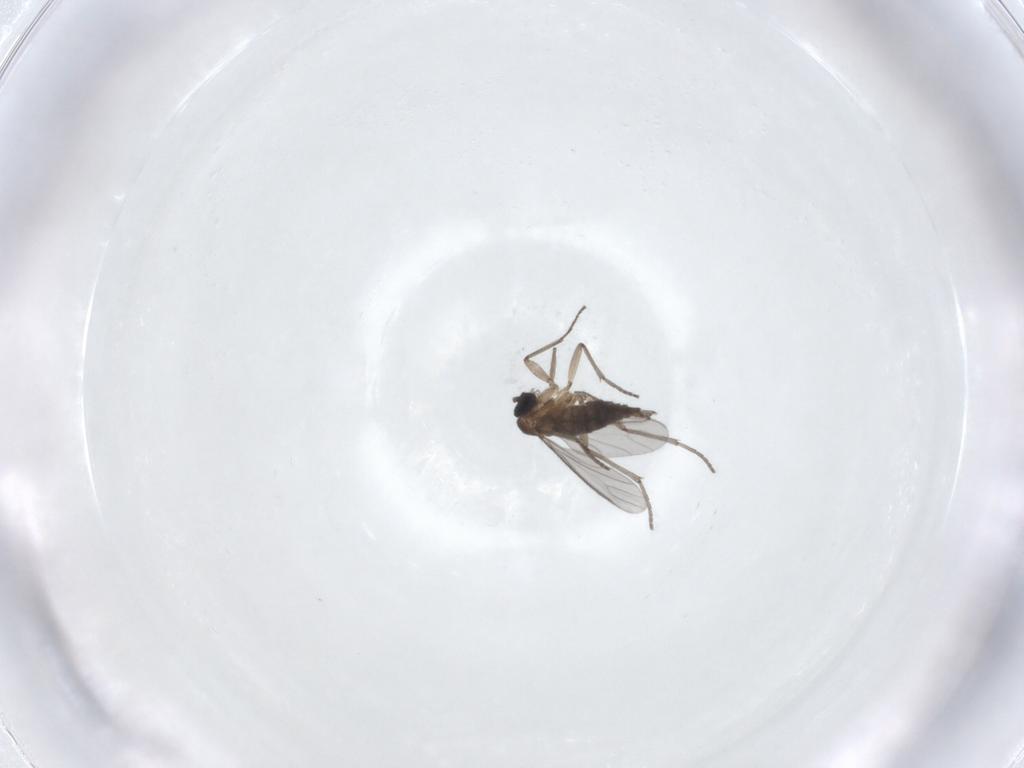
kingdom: Animalia
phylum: Arthropoda
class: Insecta
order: Diptera
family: Sciaridae
